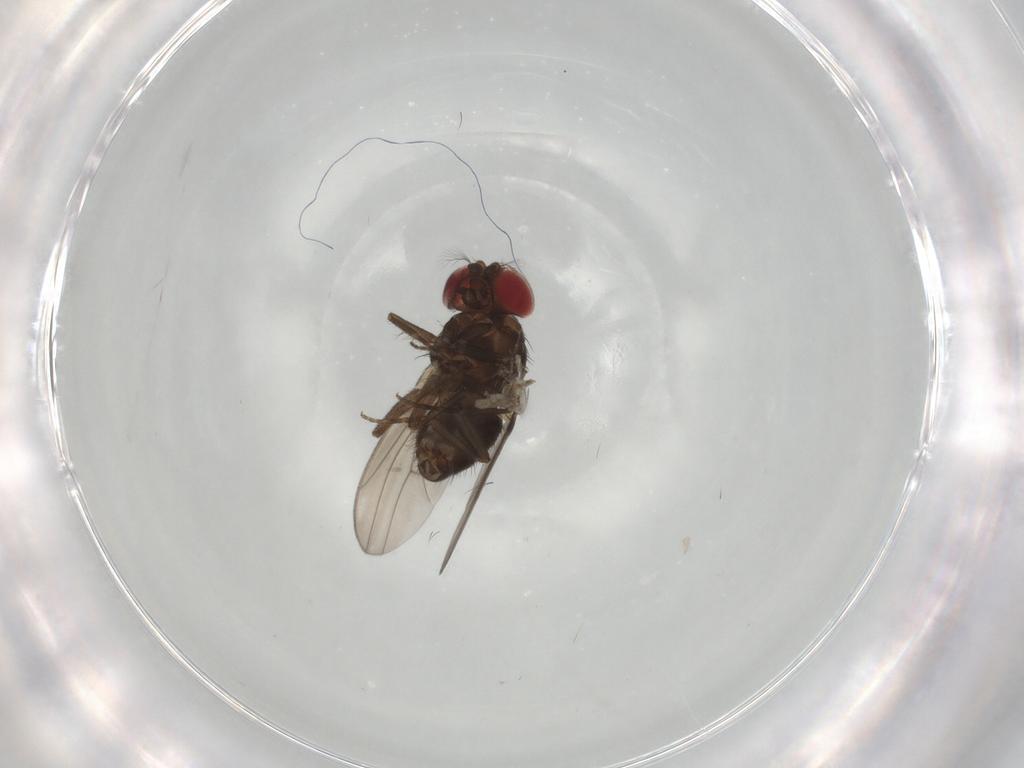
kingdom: Animalia
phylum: Arthropoda
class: Insecta
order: Diptera
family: Drosophilidae
